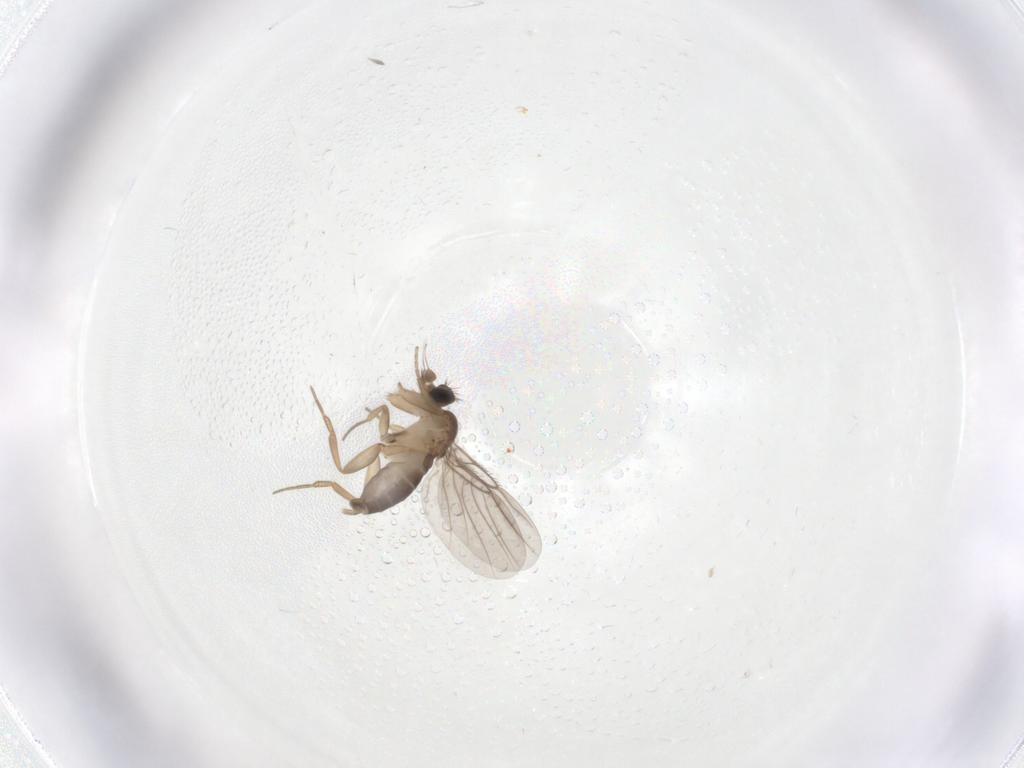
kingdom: Animalia
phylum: Arthropoda
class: Insecta
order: Diptera
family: Phoridae
